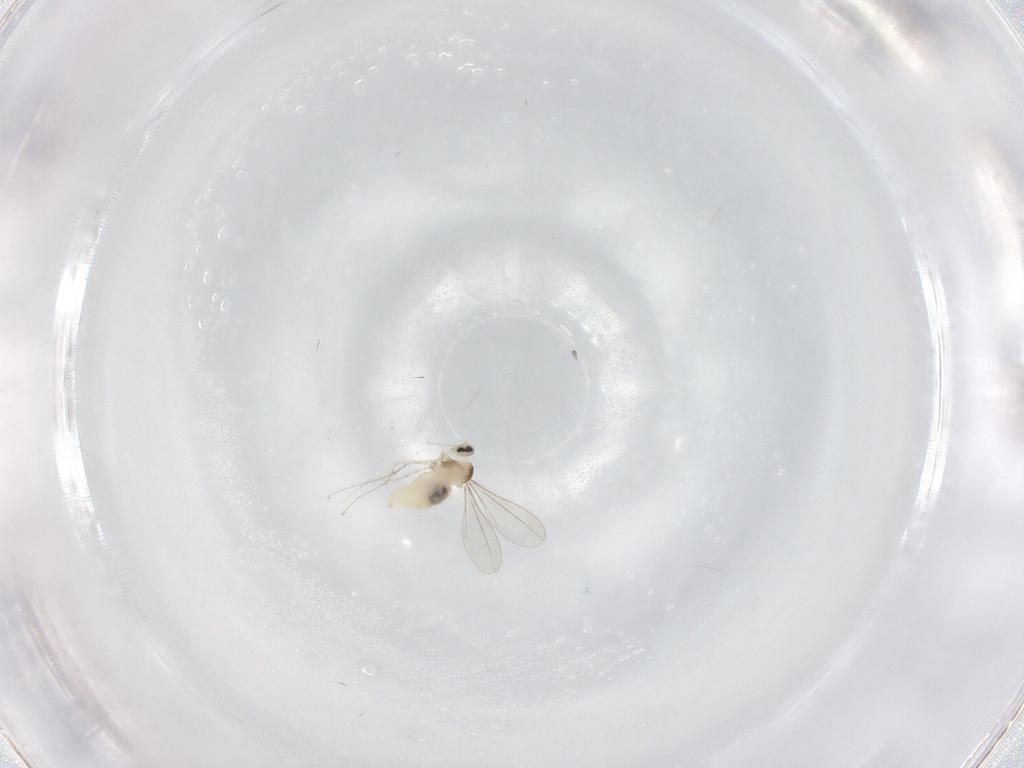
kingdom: Animalia
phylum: Arthropoda
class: Insecta
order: Diptera
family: Cecidomyiidae
